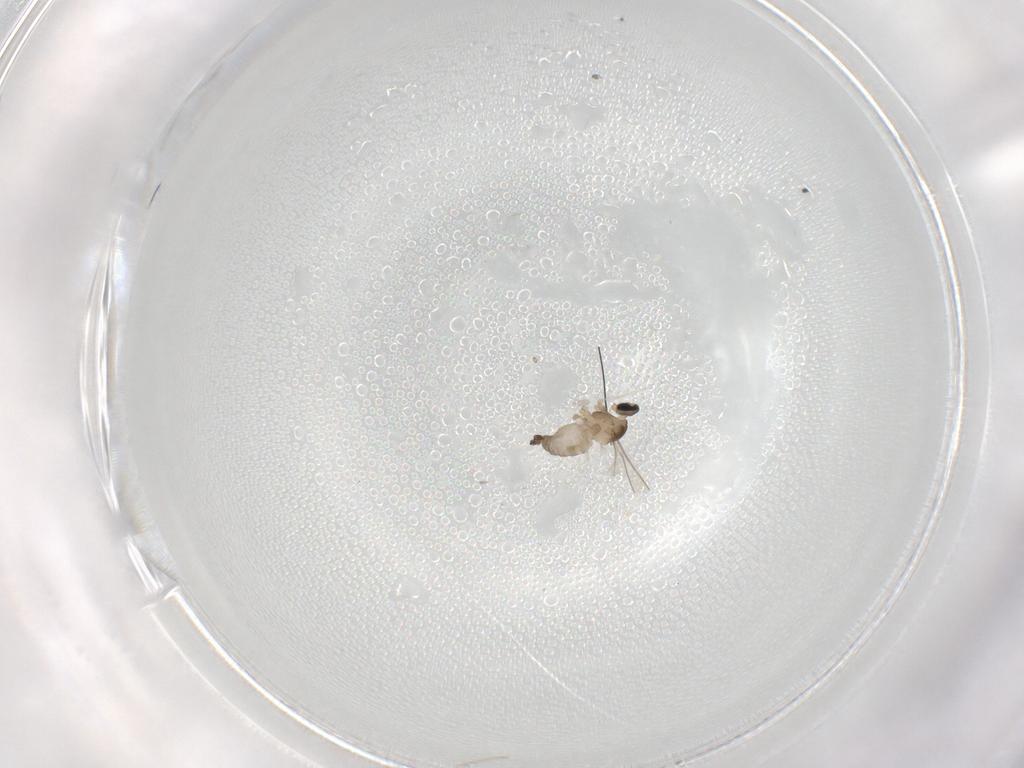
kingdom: Animalia
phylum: Arthropoda
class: Insecta
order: Diptera
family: Cecidomyiidae
